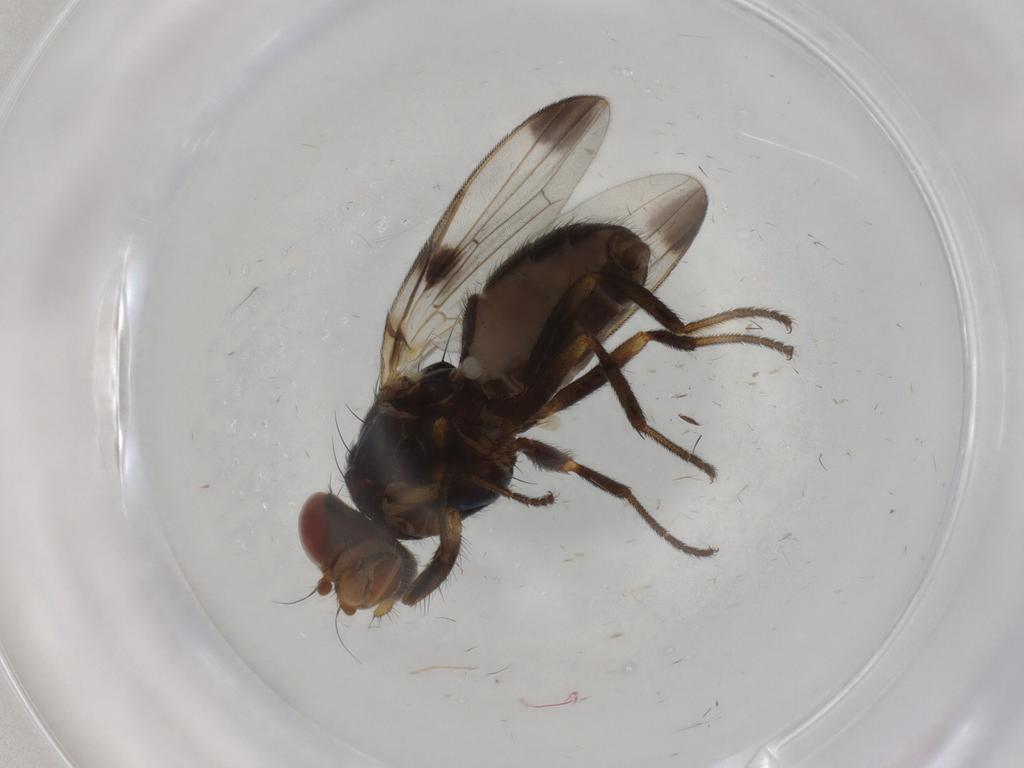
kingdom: Animalia
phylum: Arthropoda
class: Insecta
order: Diptera
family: Ulidiidae
